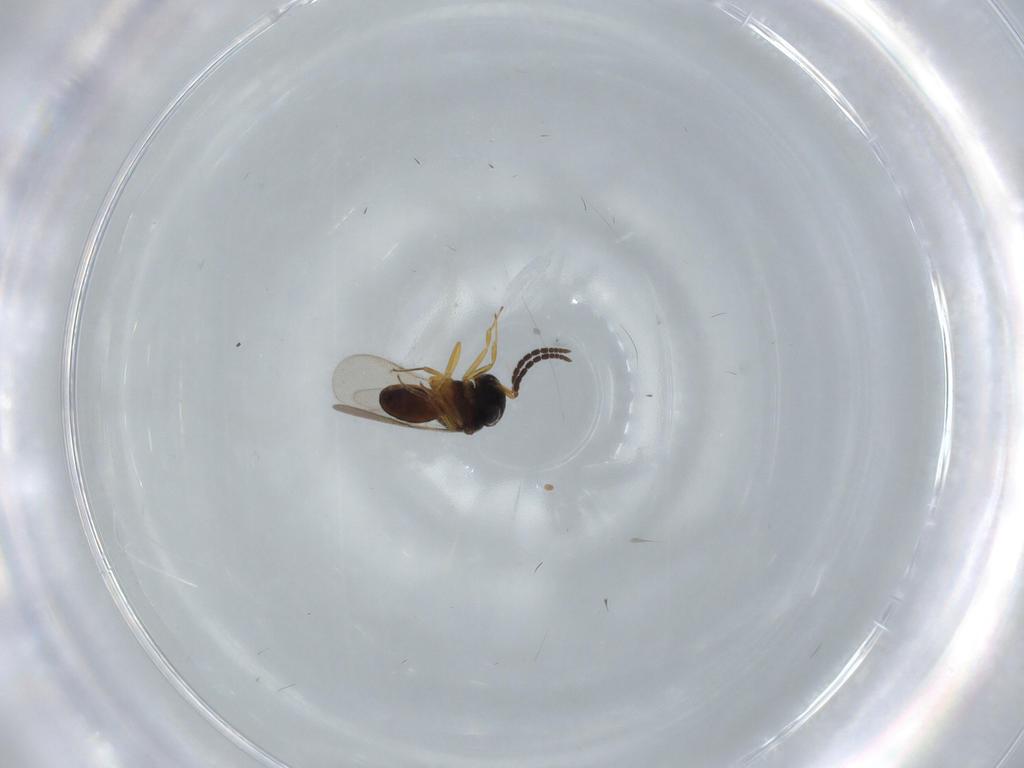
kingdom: Animalia
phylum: Arthropoda
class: Insecta
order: Hymenoptera
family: Scelionidae
